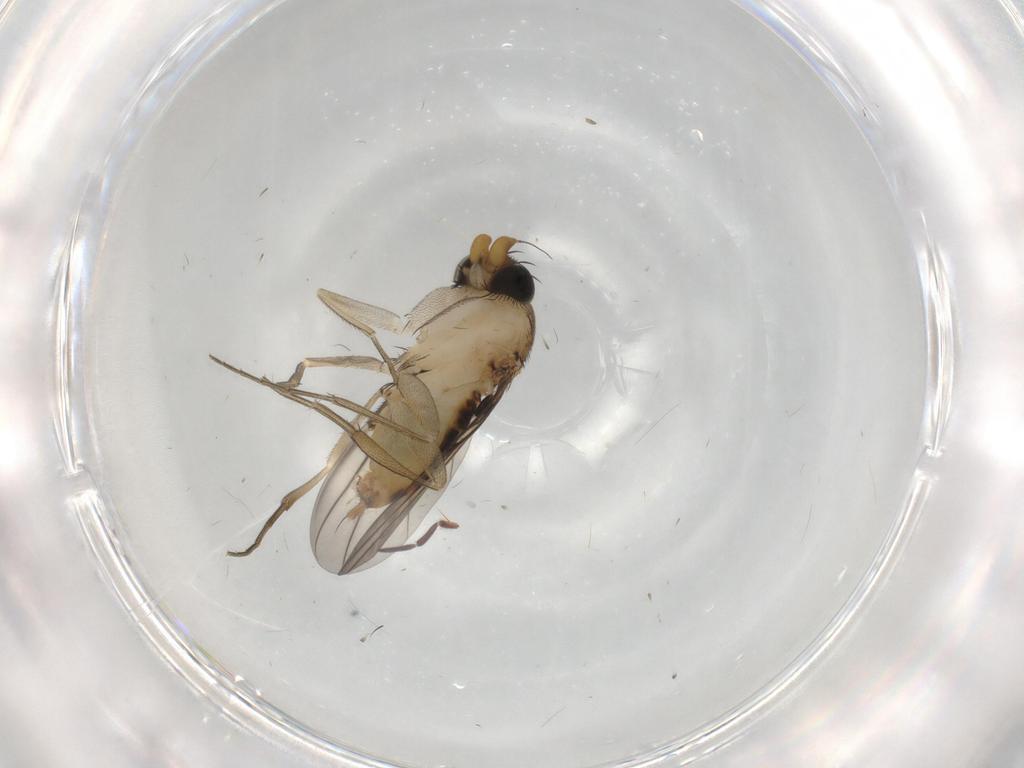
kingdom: Animalia
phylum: Arthropoda
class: Insecta
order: Diptera
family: Phoridae
